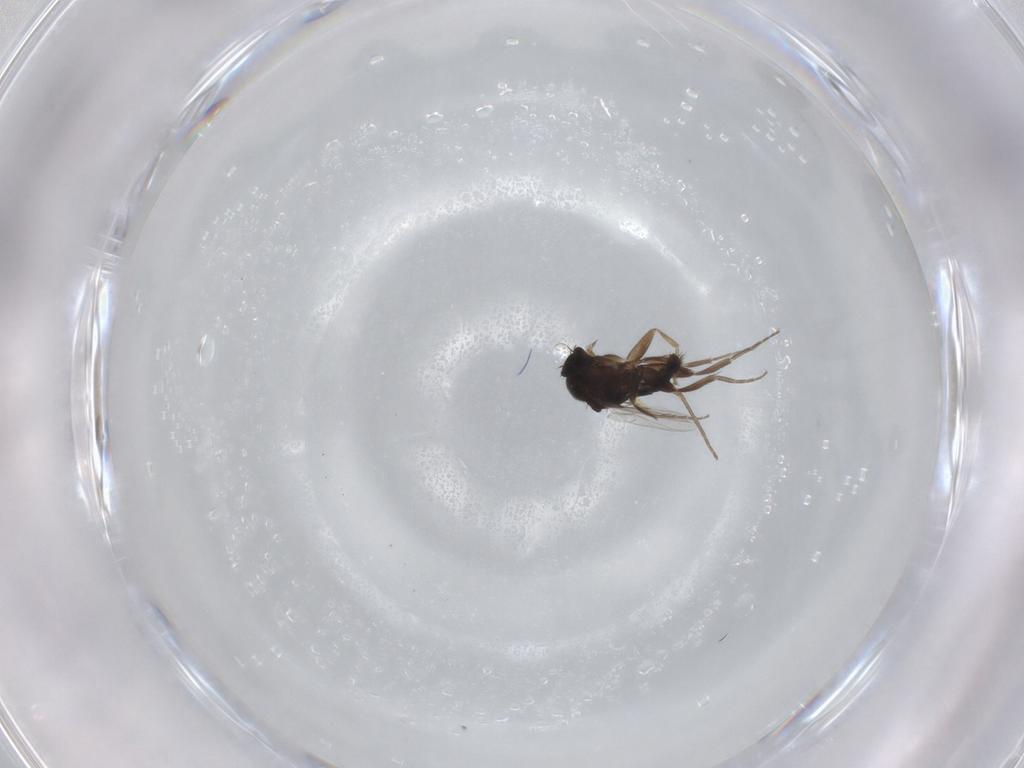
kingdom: Animalia
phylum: Arthropoda
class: Insecta
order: Diptera
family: Phoridae
